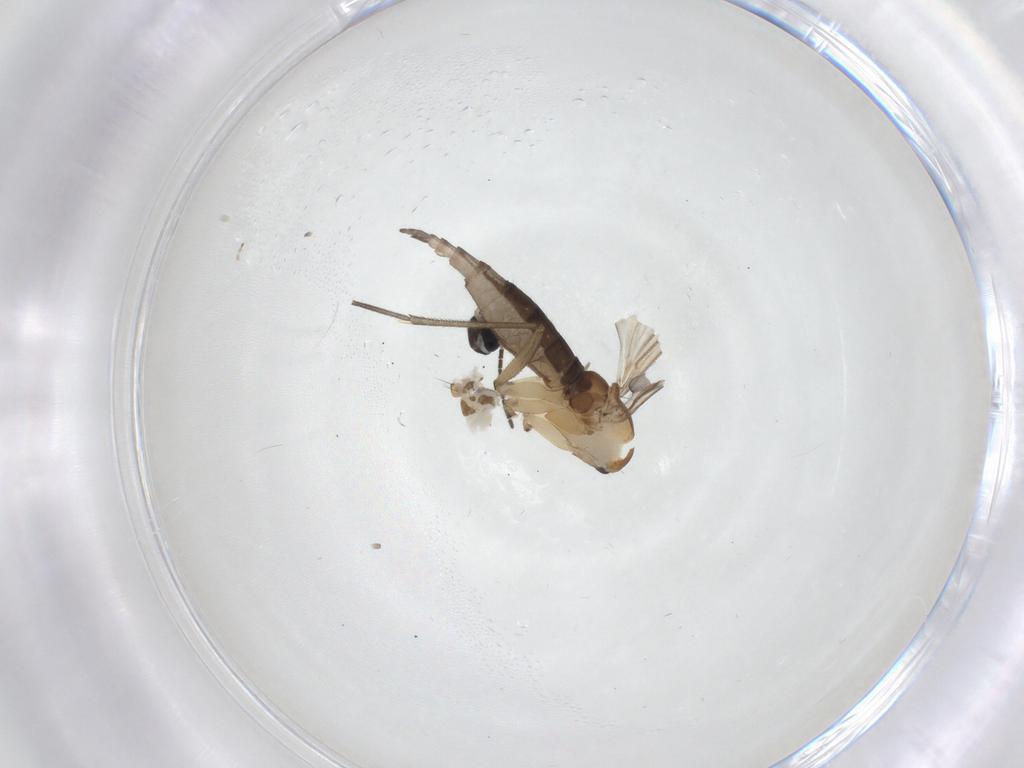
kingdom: Animalia
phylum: Arthropoda
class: Insecta
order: Diptera
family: Sciaridae
